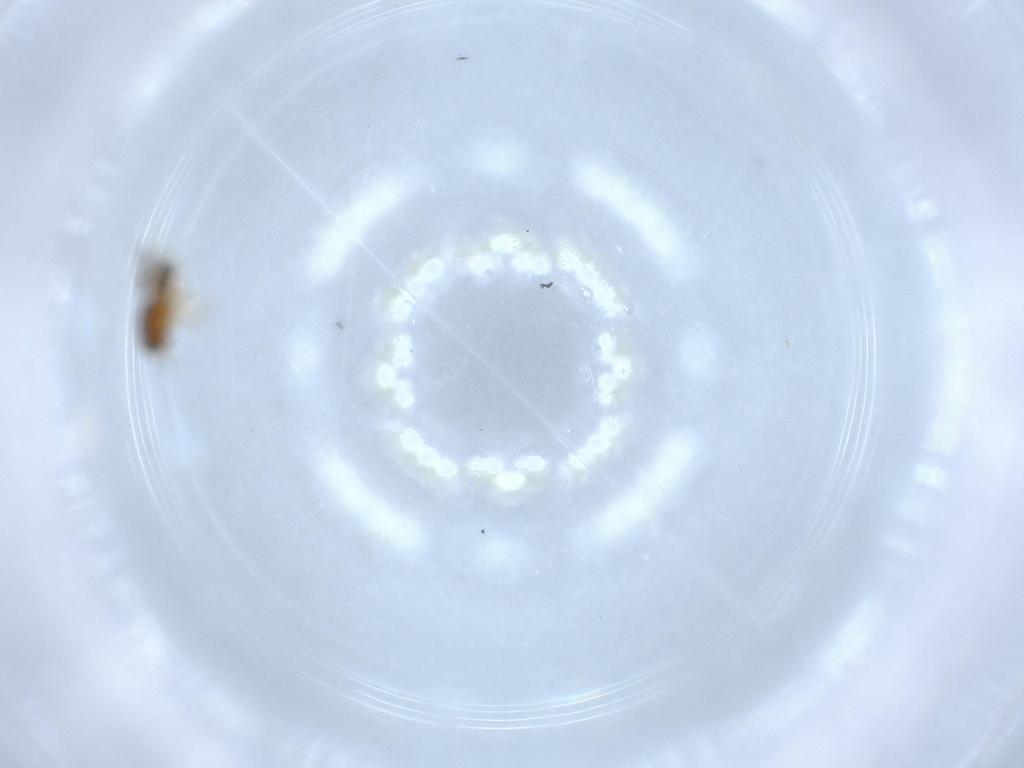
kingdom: Animalia
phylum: Arthropoda
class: Insecta
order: Hymenoptera
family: Scelionidae
